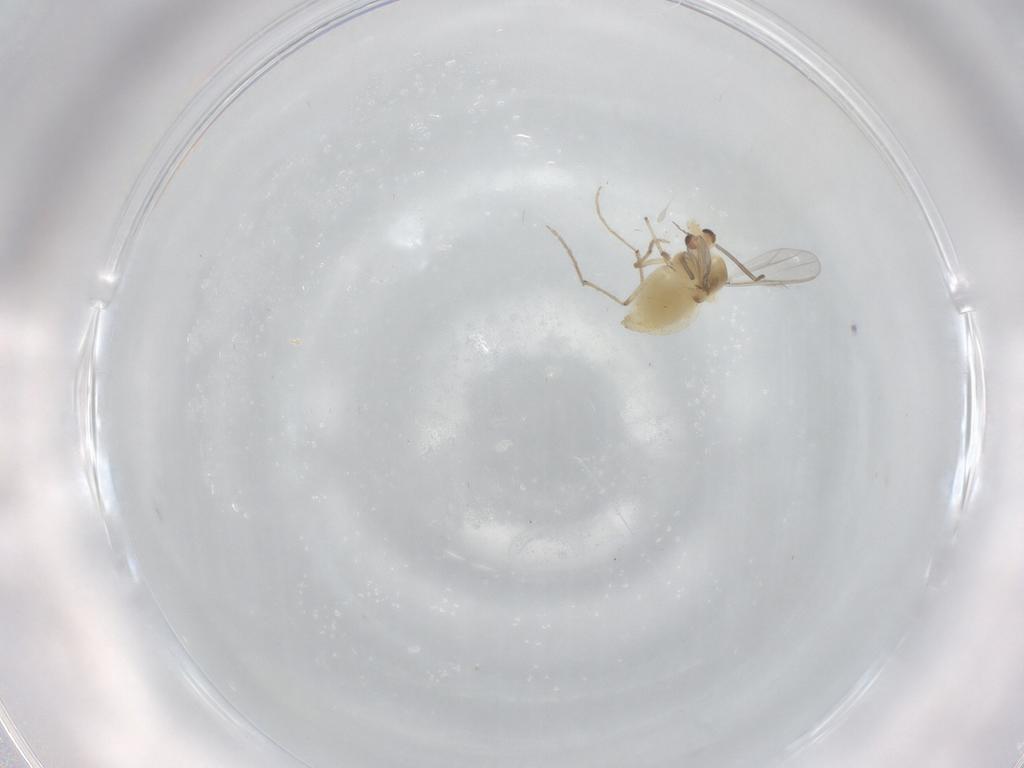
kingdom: Animalia
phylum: Arthropoda
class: Insecta
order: Diptera
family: Chironomidae
